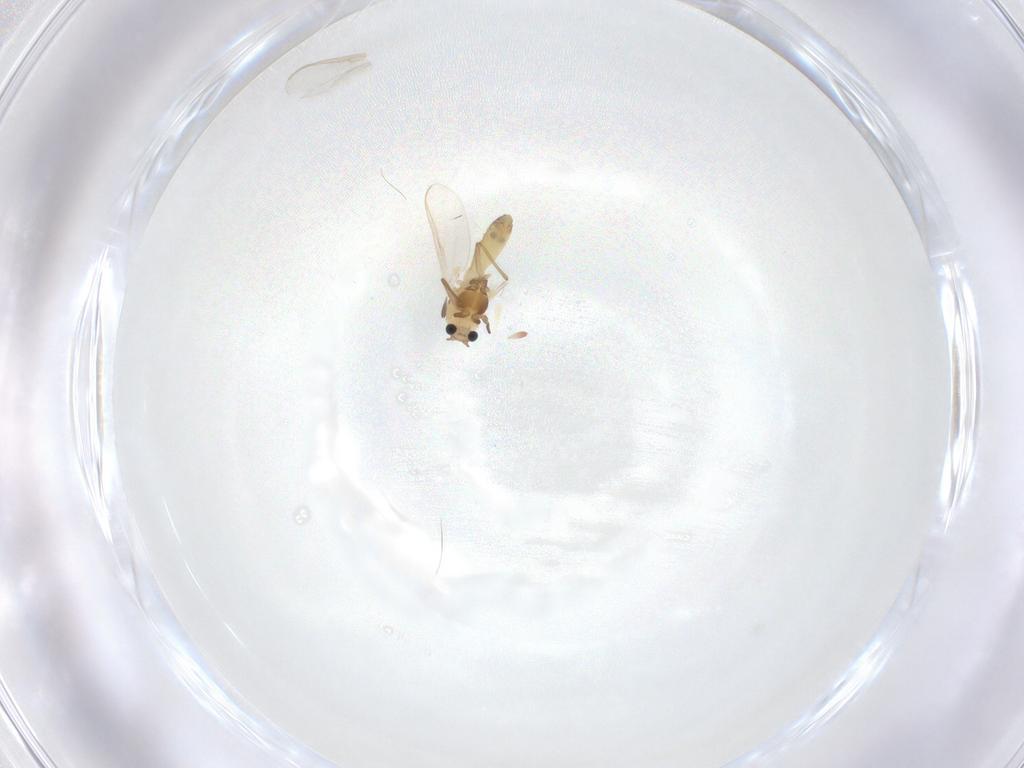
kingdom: Animalia
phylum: Arthropoda
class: Insecta
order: Diptera
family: Chironomidae
